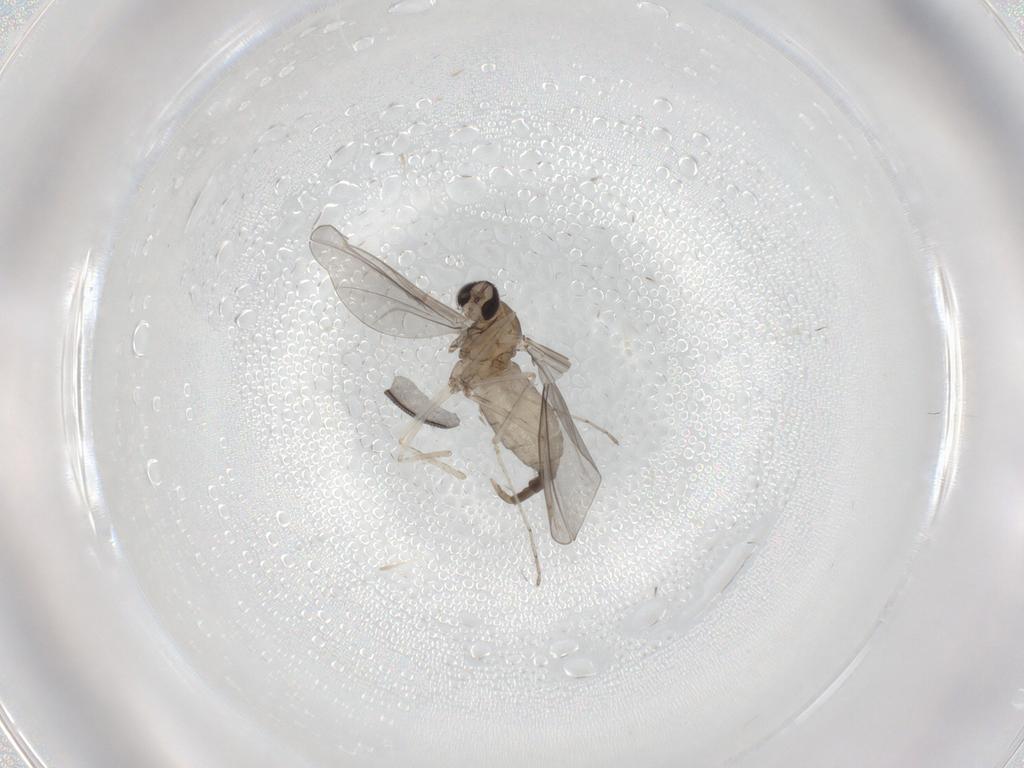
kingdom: Animalia
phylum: Arthropoda
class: Insecta
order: Diptera
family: Cecidomyiidae
